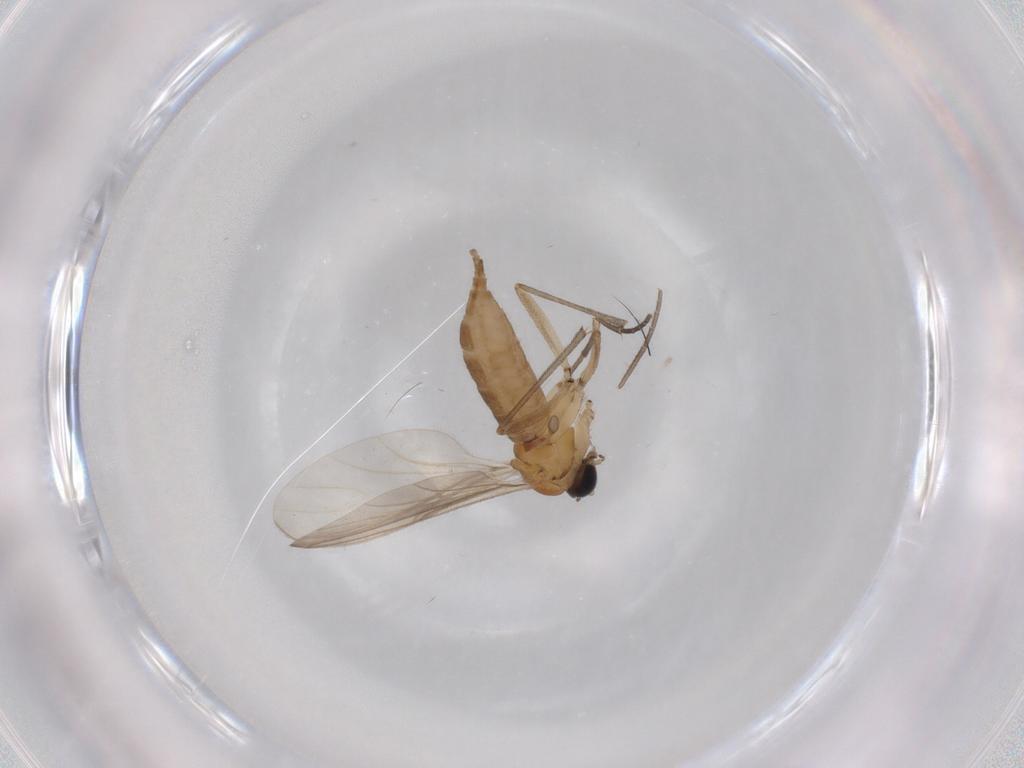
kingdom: Animalia
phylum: Arthropoda
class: Insecta
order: Diptera
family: Sciaridae
